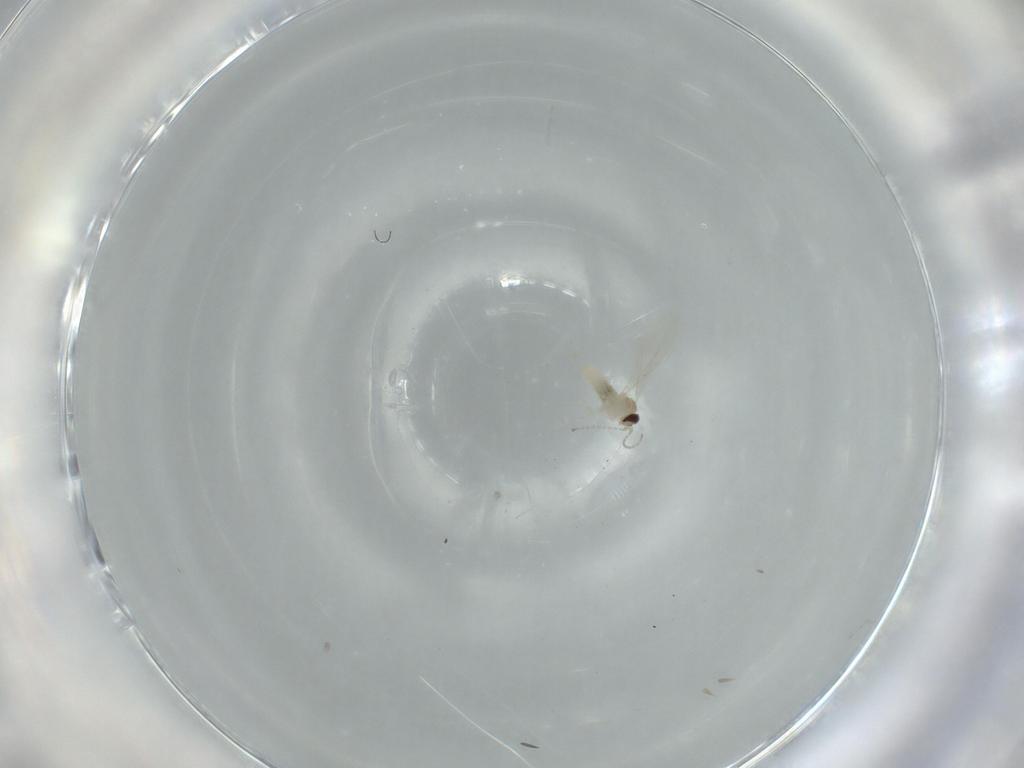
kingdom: Animalia
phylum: Arthropoda
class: Insecta
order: Diptera
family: Cecidomyiidae
